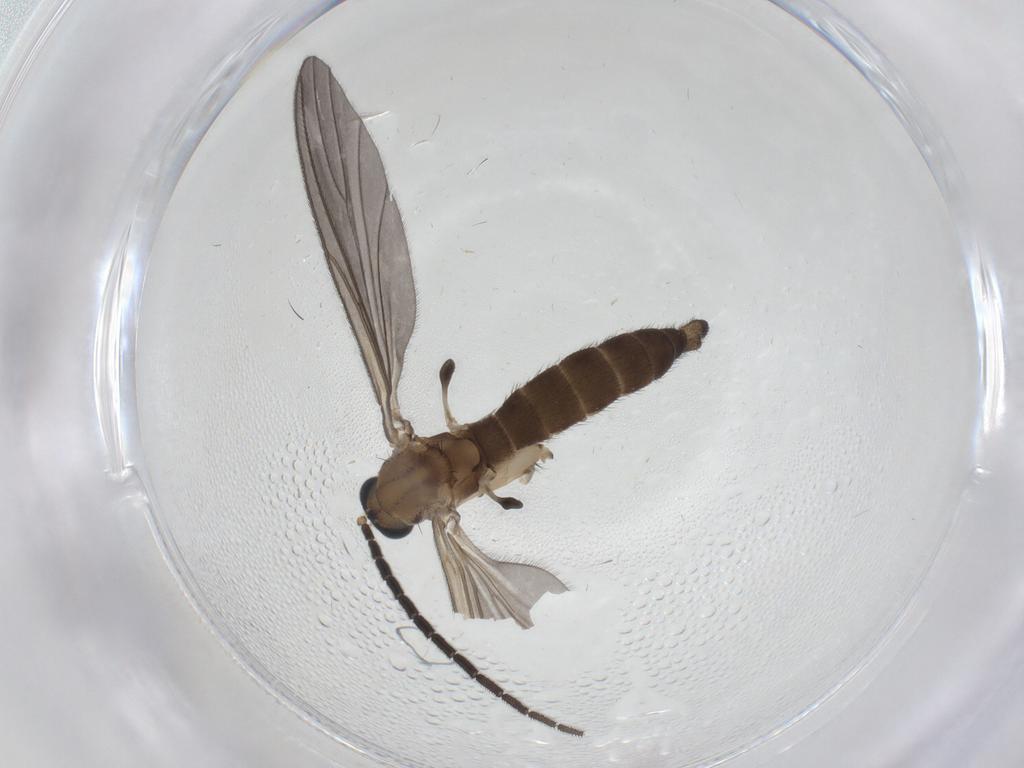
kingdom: Animalia
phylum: Arthropoda
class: Insecta
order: Diptera
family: Sciaridae
